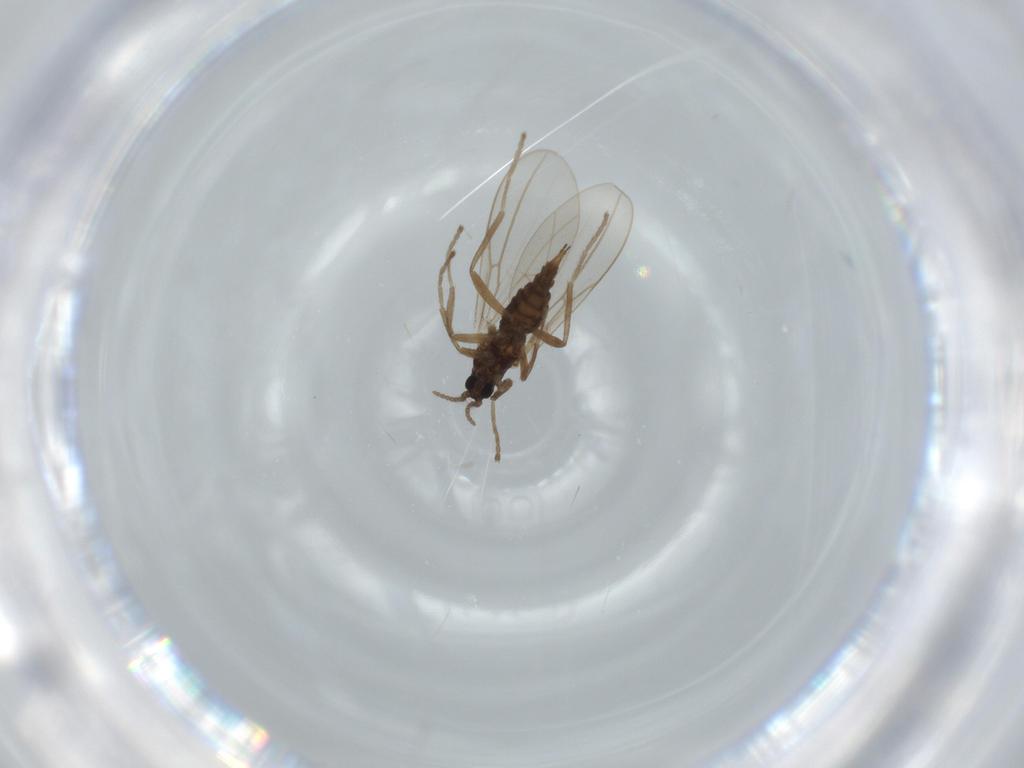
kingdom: Animalia
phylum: Arthropoda
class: Insecta
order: Diptera
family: Cecidomyiidae
